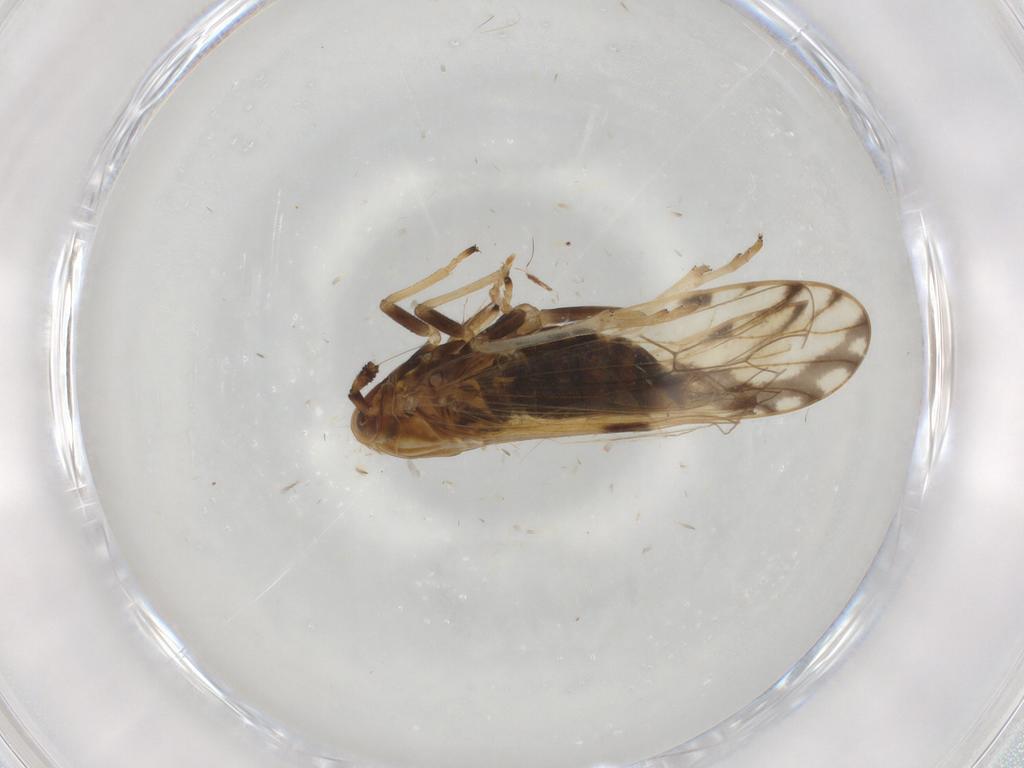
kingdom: Animalia
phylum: Arthropoda
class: Insecta
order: Hemiptera
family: Delphacidae
